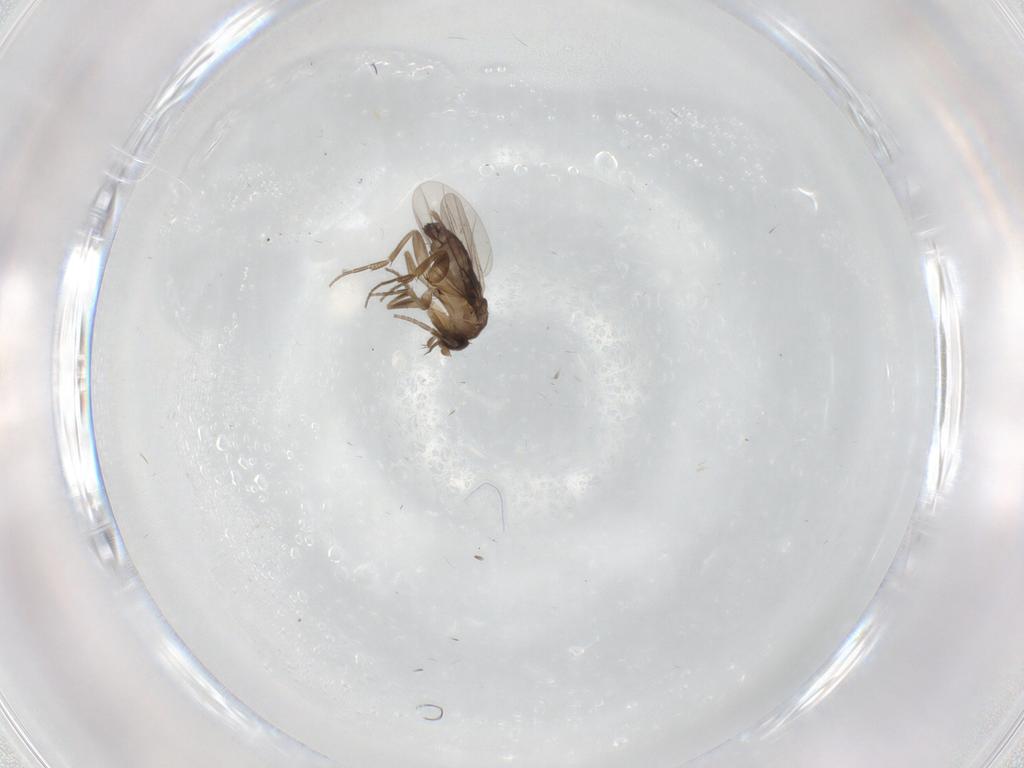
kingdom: Animalia
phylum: Arthropoda
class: Insecta
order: Diptera
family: Phoridae
